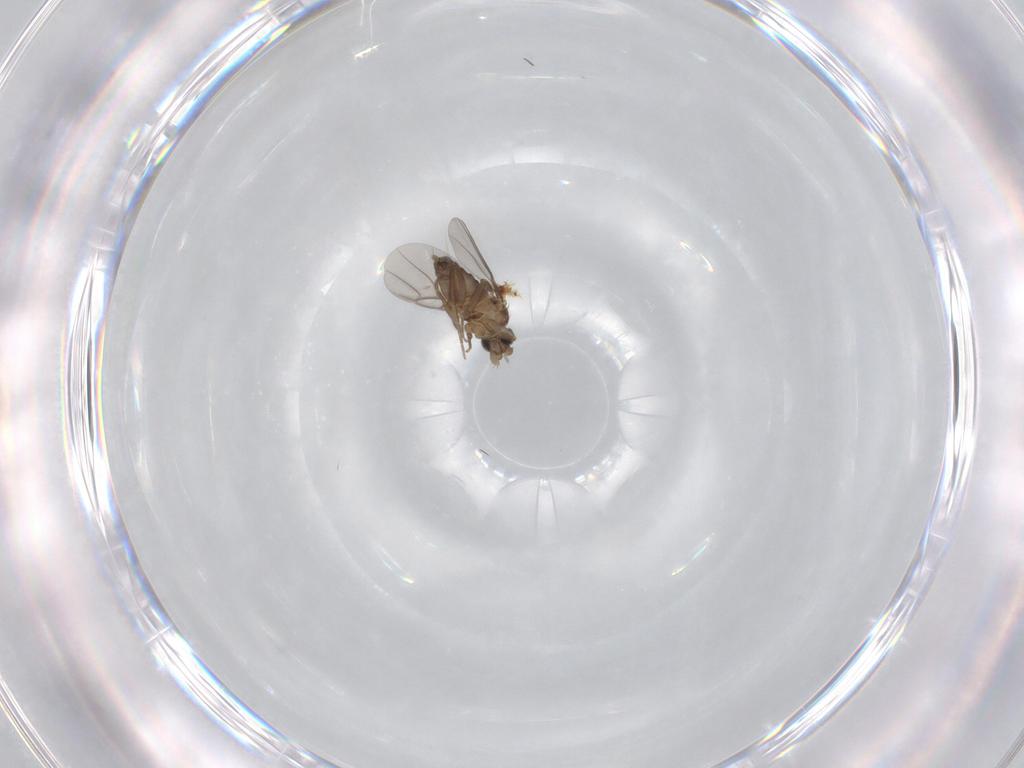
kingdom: Animalia
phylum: Arthropoda
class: Insecta
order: Diptera
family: Phoridae
